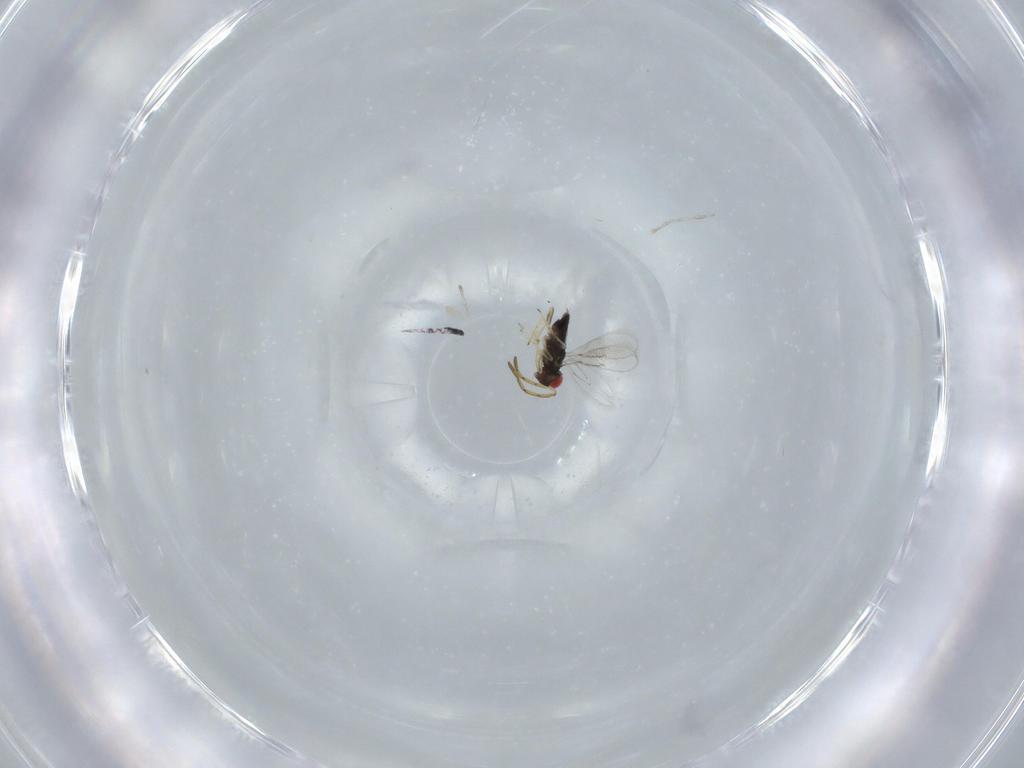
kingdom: Animalia
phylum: Arthropoda
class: Insecta
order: Hymenoptera
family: Azotidae
